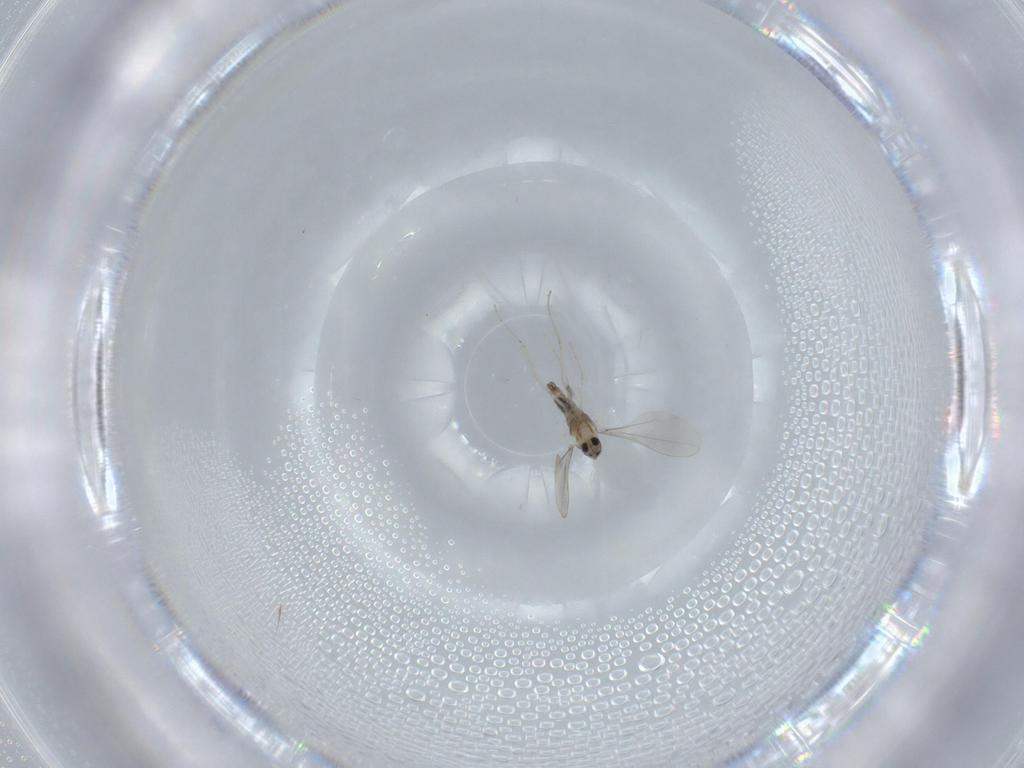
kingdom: Animalia
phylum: Arthropoda
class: Insecta
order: Diptera
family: Cecidomyiidae
